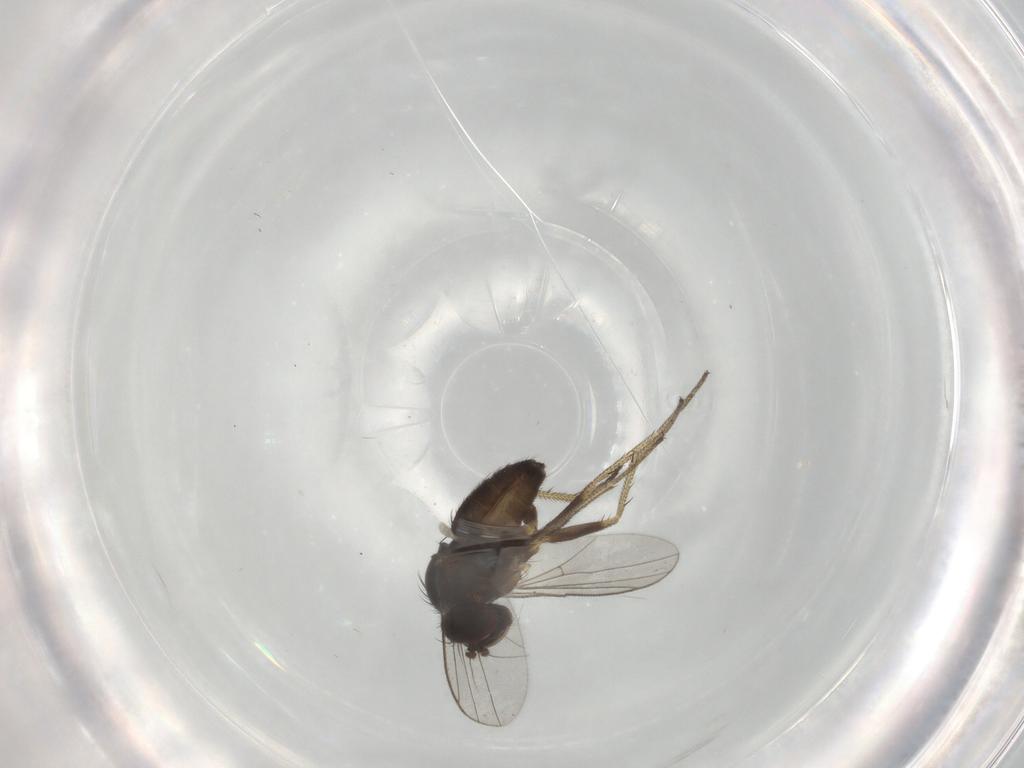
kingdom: Animalia
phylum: Arthropoda
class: Insecta
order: Diptera
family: Dolichopodidae
